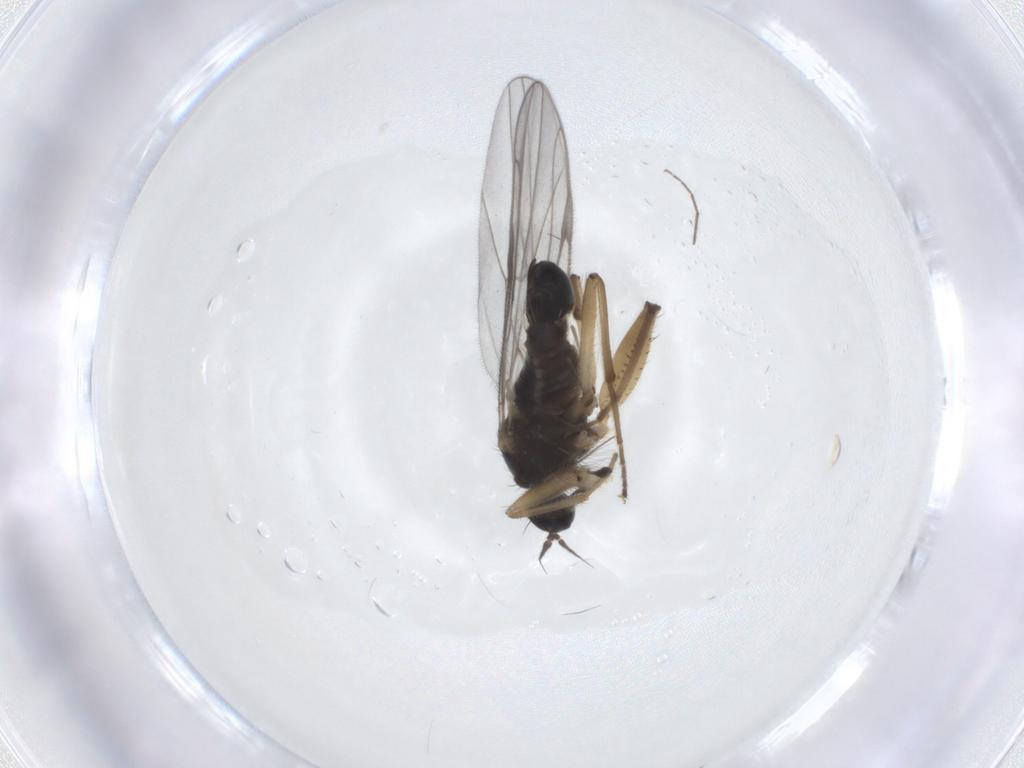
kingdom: Animalia
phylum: Arthropoda
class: Insecta
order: Diptera
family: Hybotidae
